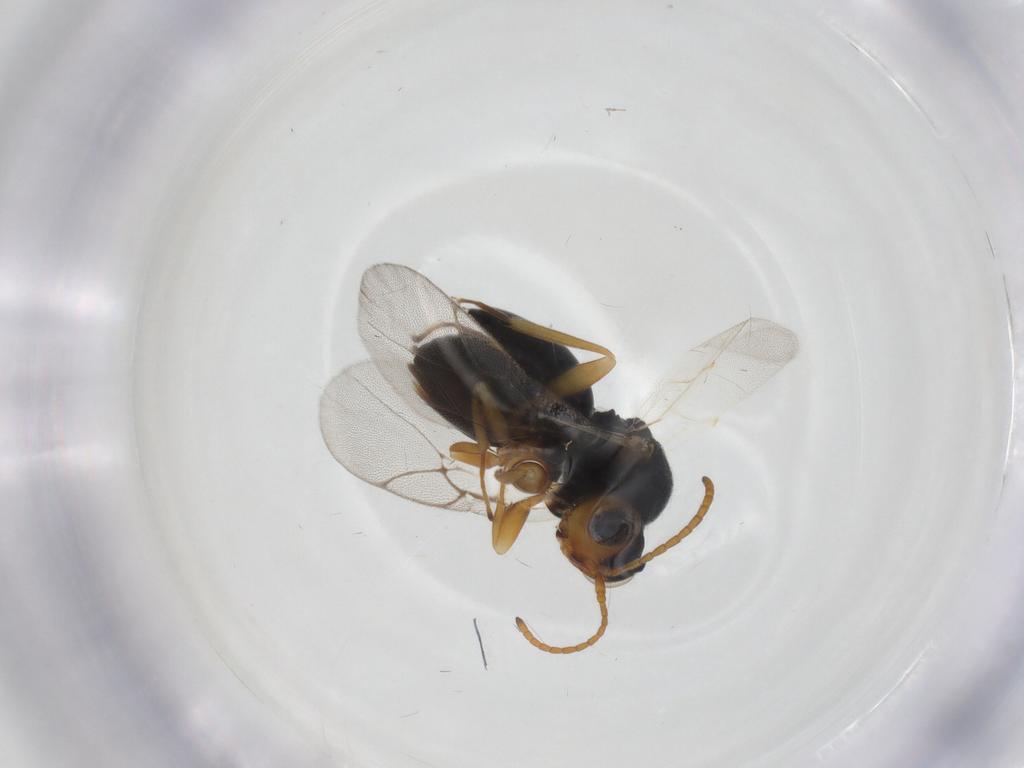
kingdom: Animalia
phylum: Arthropoda
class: Insecta
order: Hymenoptera
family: Cynipidae
